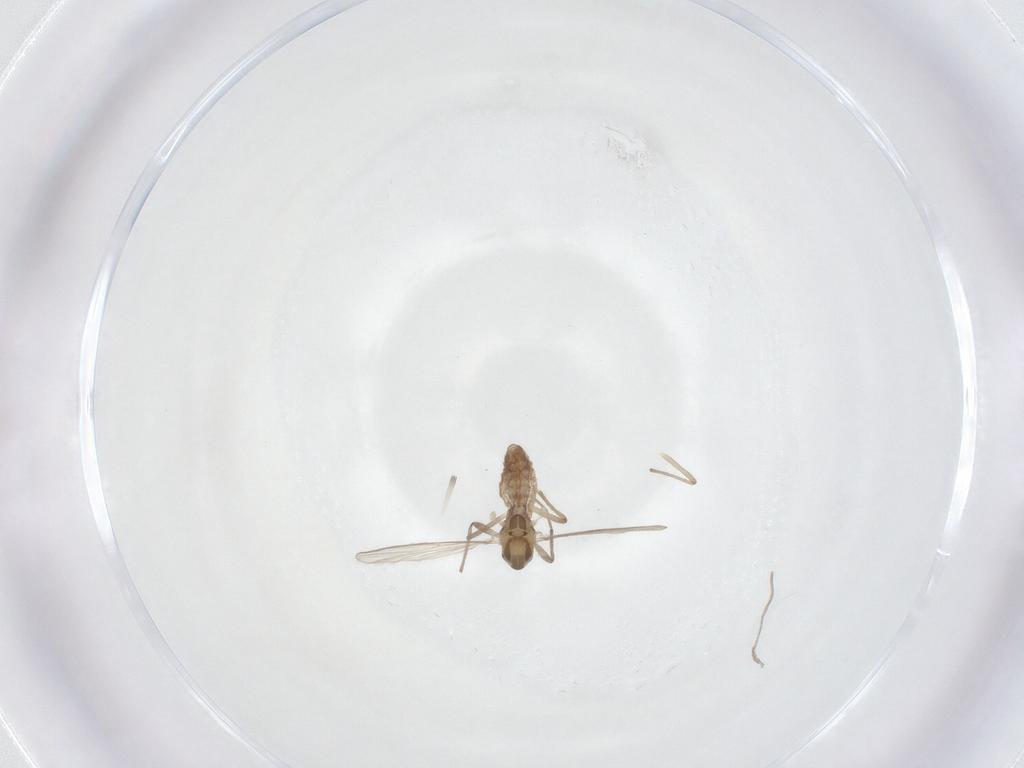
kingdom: Animalia
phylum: Arthropoda
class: Insecta
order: Diptera
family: Chironomidae
